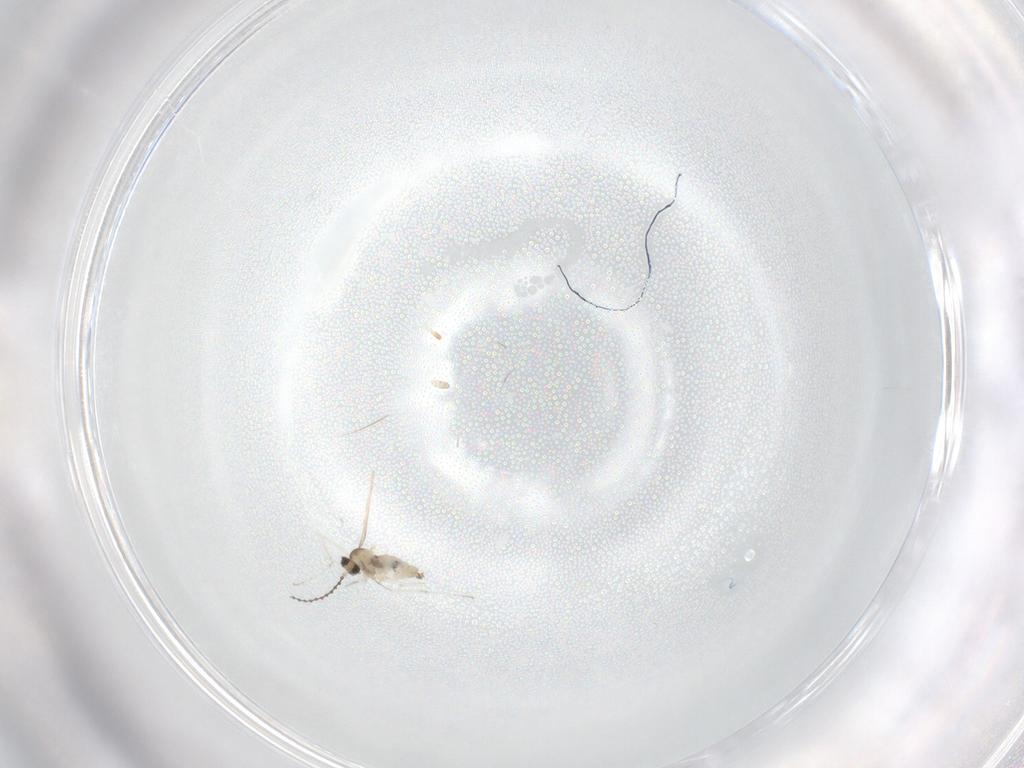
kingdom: Animalia
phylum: Arthropoda
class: Insecta
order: Diptera
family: Cecidomyiidae
